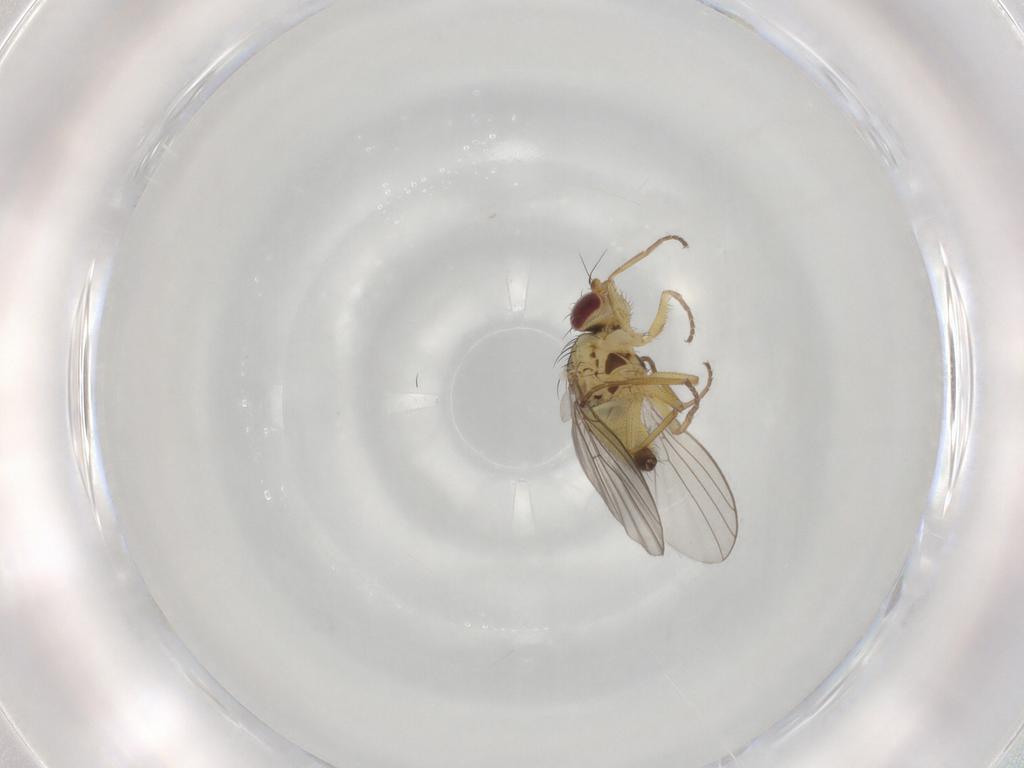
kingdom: Animalia
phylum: Arthropoda
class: Insecta
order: Diptera
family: Agromyzidae
